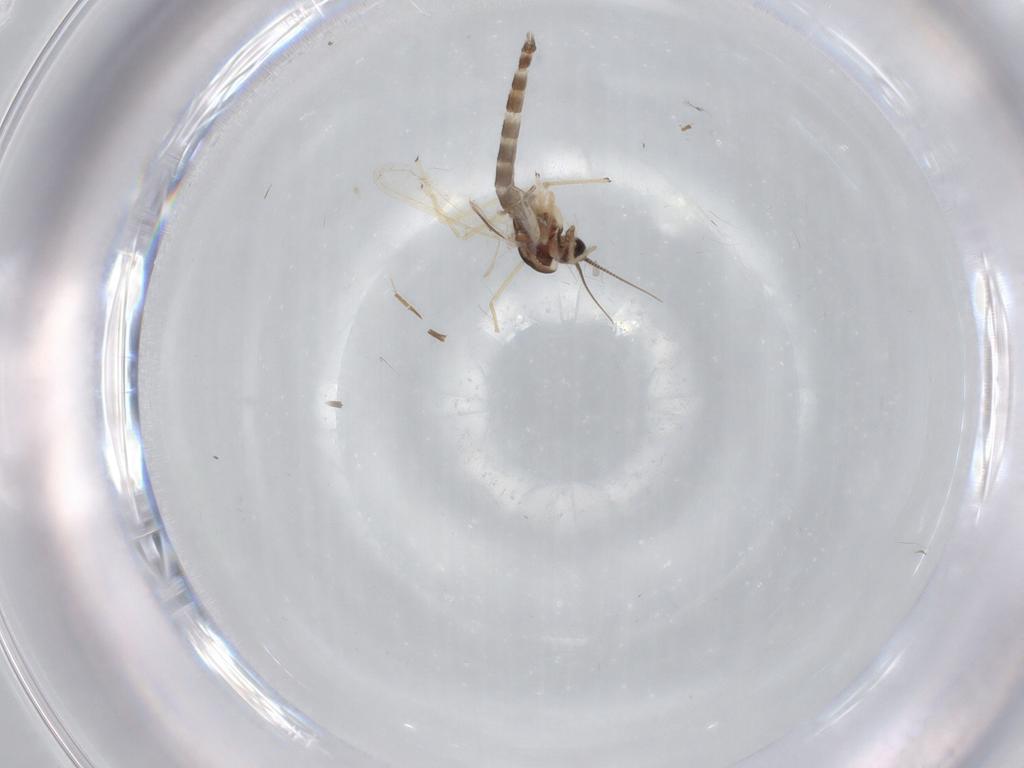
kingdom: Animalia
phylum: Arthropoda
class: Insecta
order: Diptera
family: Chironomidae
